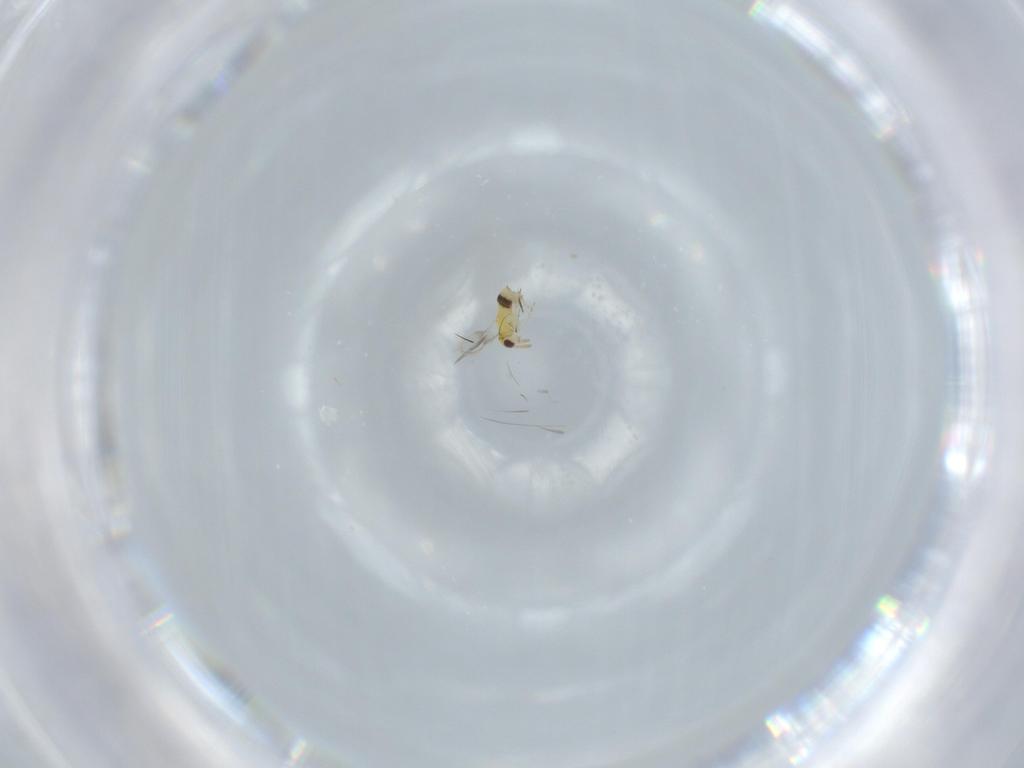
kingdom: Animalia
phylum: Arthropoda
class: Insecta
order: Hymenoptera
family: Aphelinidae
